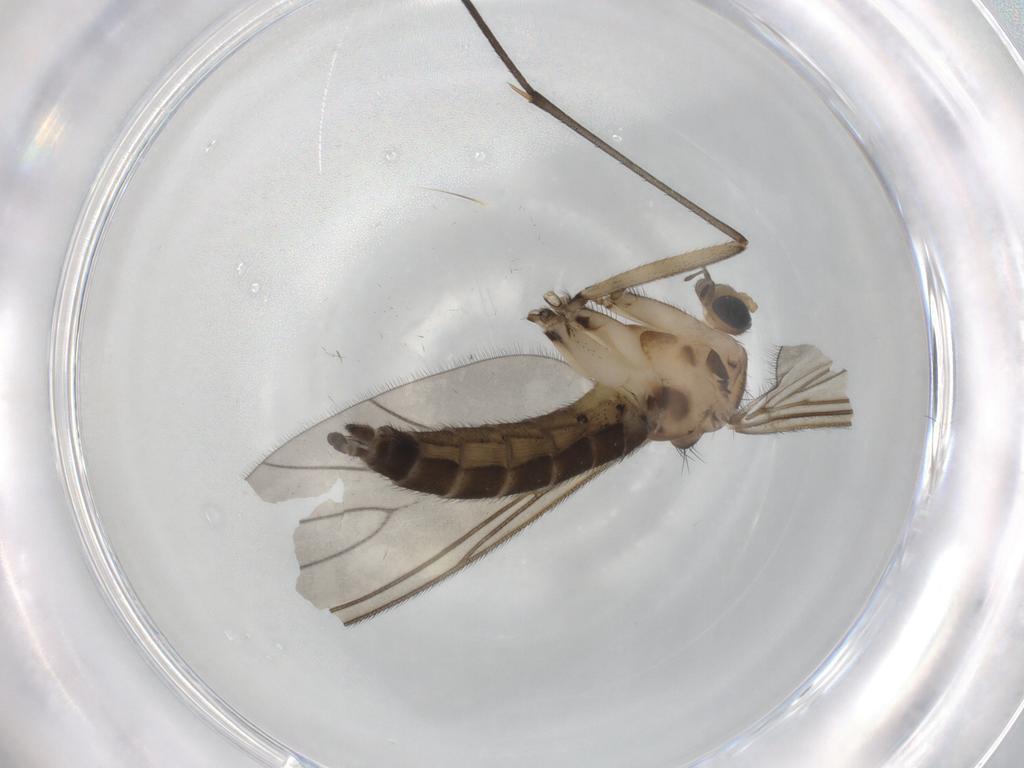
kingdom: Animalia
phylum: Arthropoda
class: Insecta
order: Diptera
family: Sciaridae
